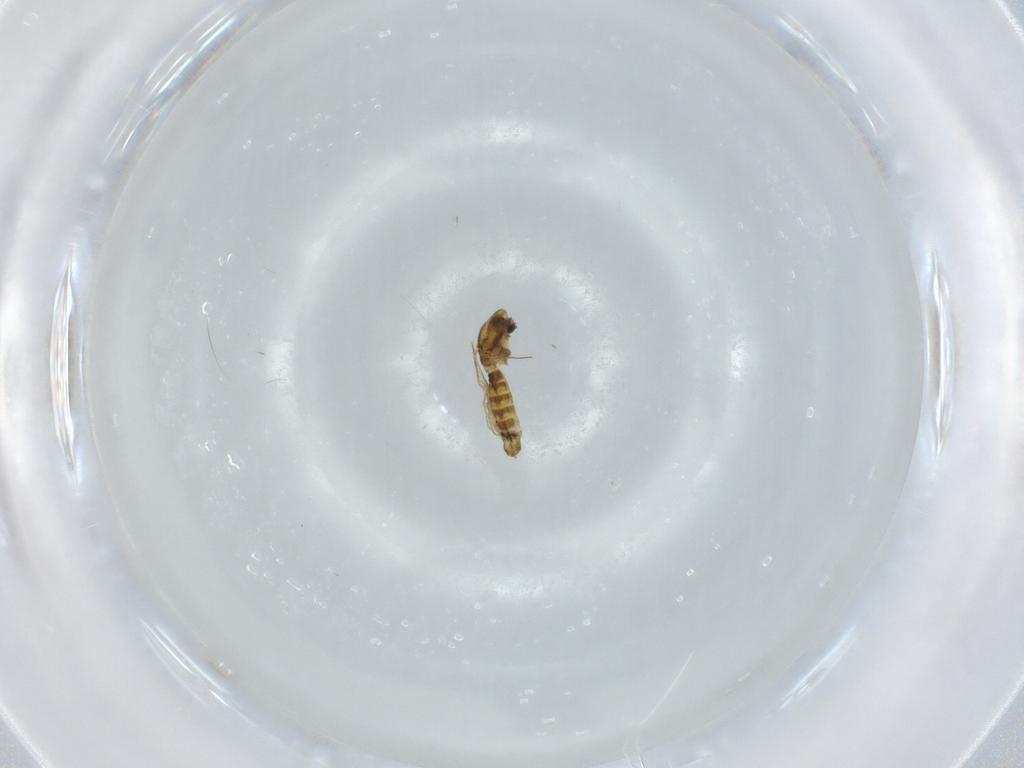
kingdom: Animalia
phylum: Arthropoda
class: Insecta
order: Diptera
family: Chironomidae
